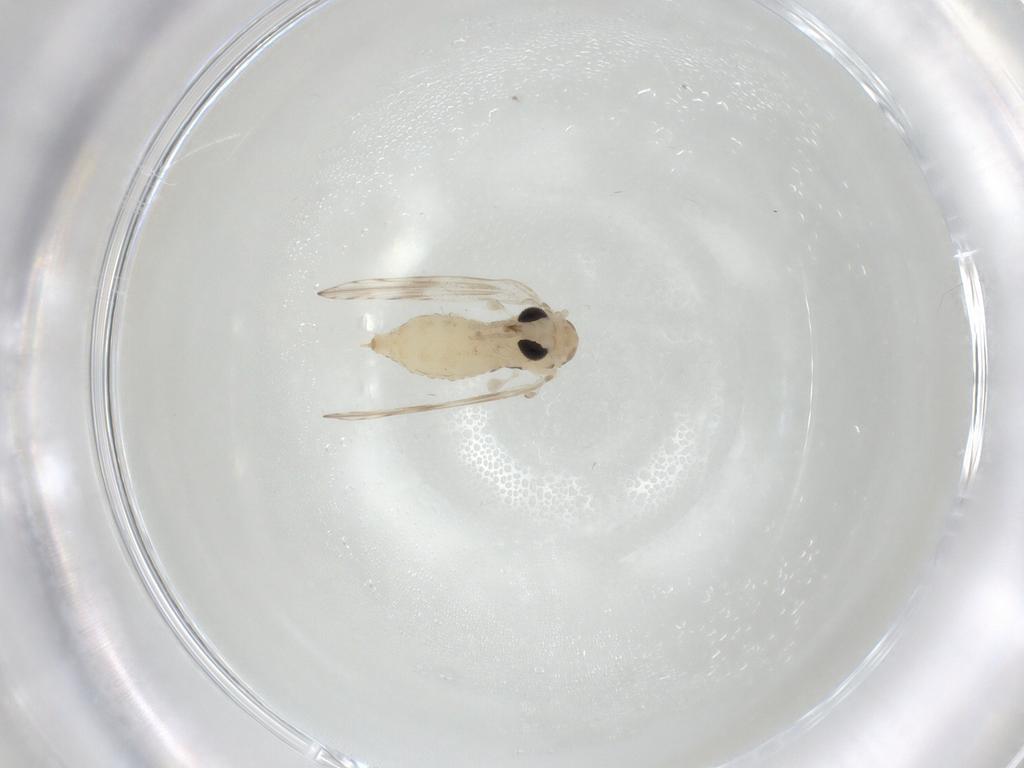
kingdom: Animalia
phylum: Arthropoda
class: Insecta
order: Diptera
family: Psychodidae
